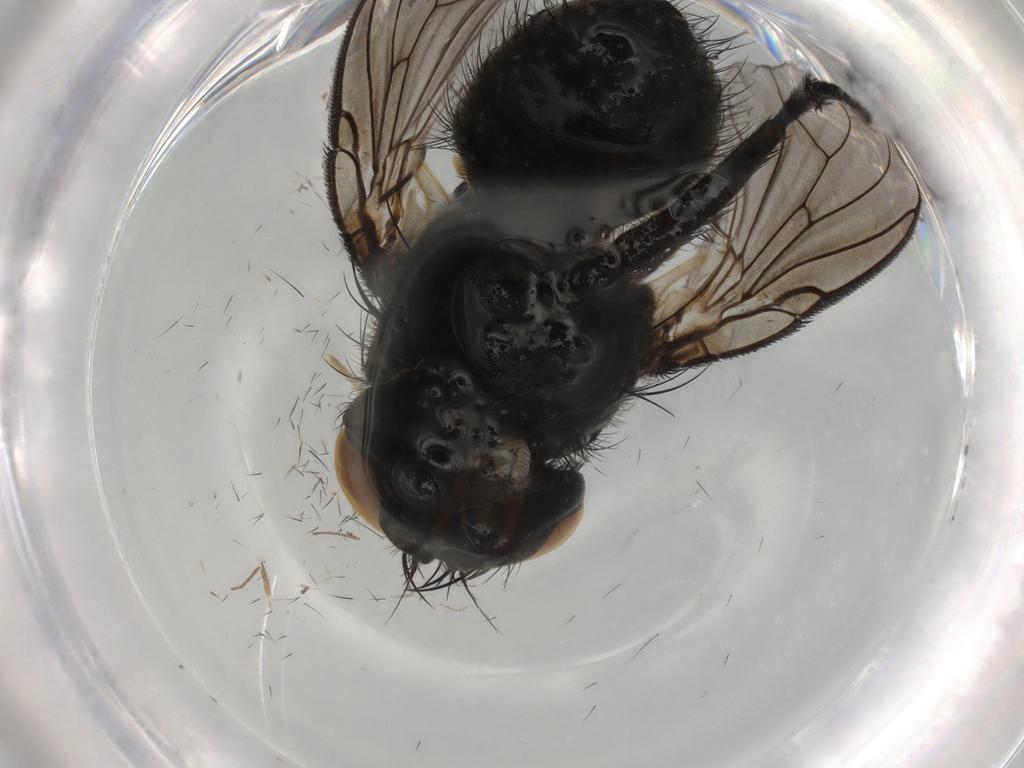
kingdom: Animalia
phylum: Arthropoda
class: Insecta
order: Diptera
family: Muscidae
